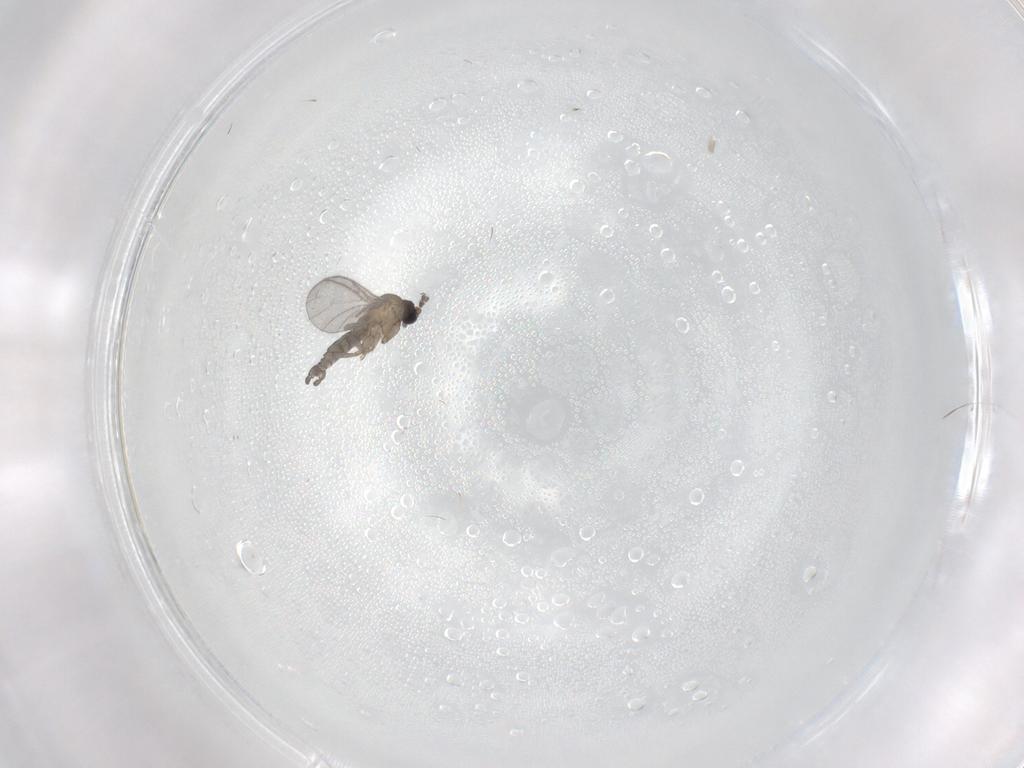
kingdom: Animalia
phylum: Arthropoda
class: Insecta
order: Diptera
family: Sciaridae
